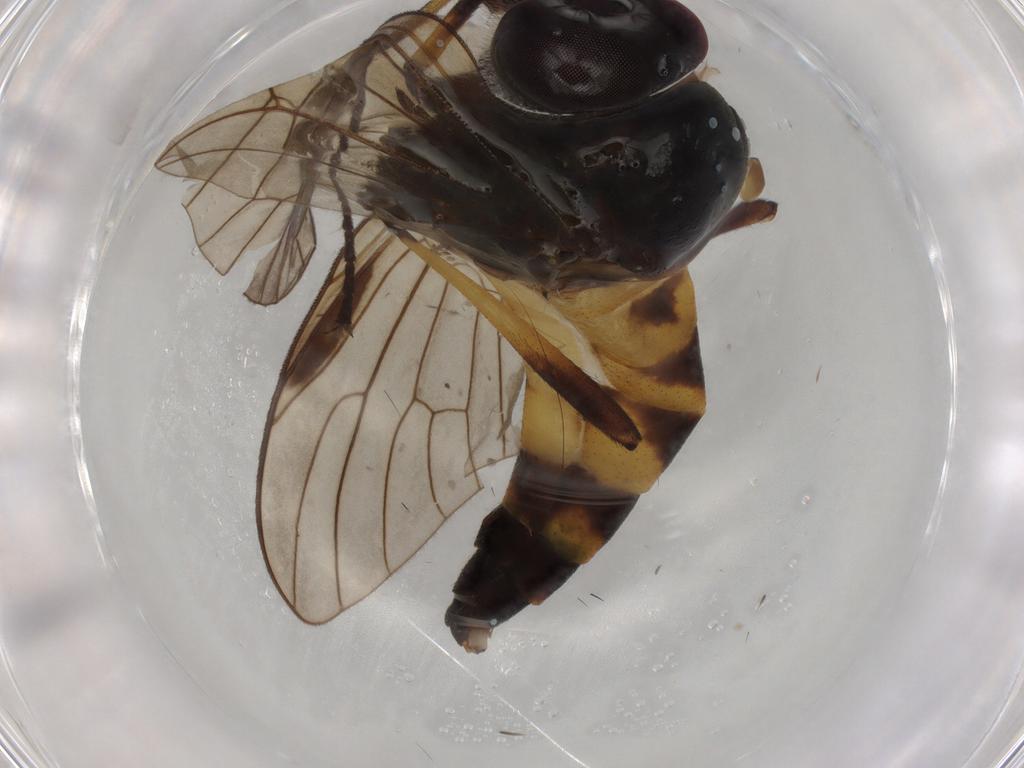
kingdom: Animalia
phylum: Arthropoda
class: Insecta
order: Diptera
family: Rhagionidae
